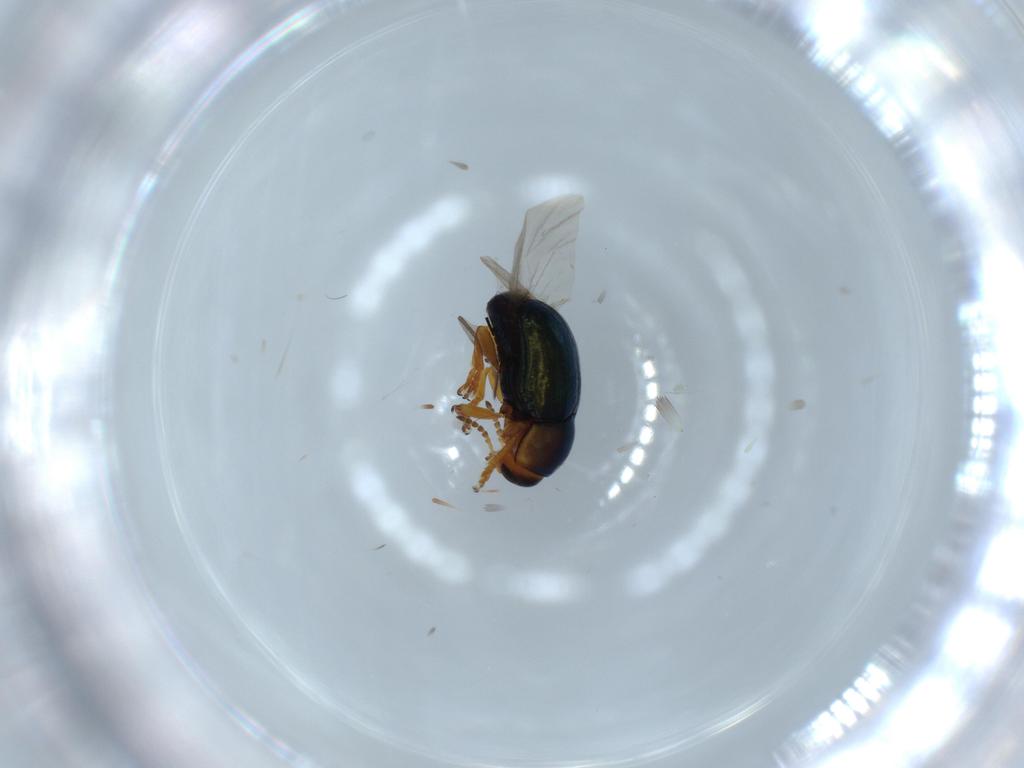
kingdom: Animalia
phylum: Arthropoda
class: Insecta
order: Coleoptera
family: Chrysomelidae
